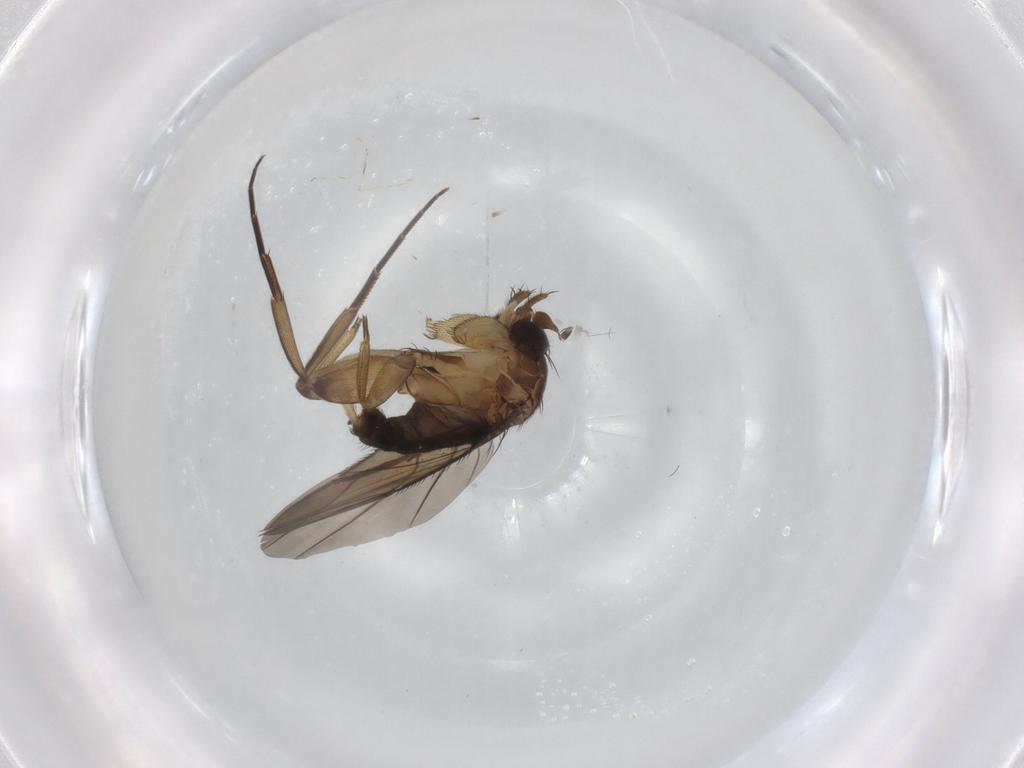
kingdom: Animalia
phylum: Arthropoda
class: Insecta
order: Diptera
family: Psychodidae
